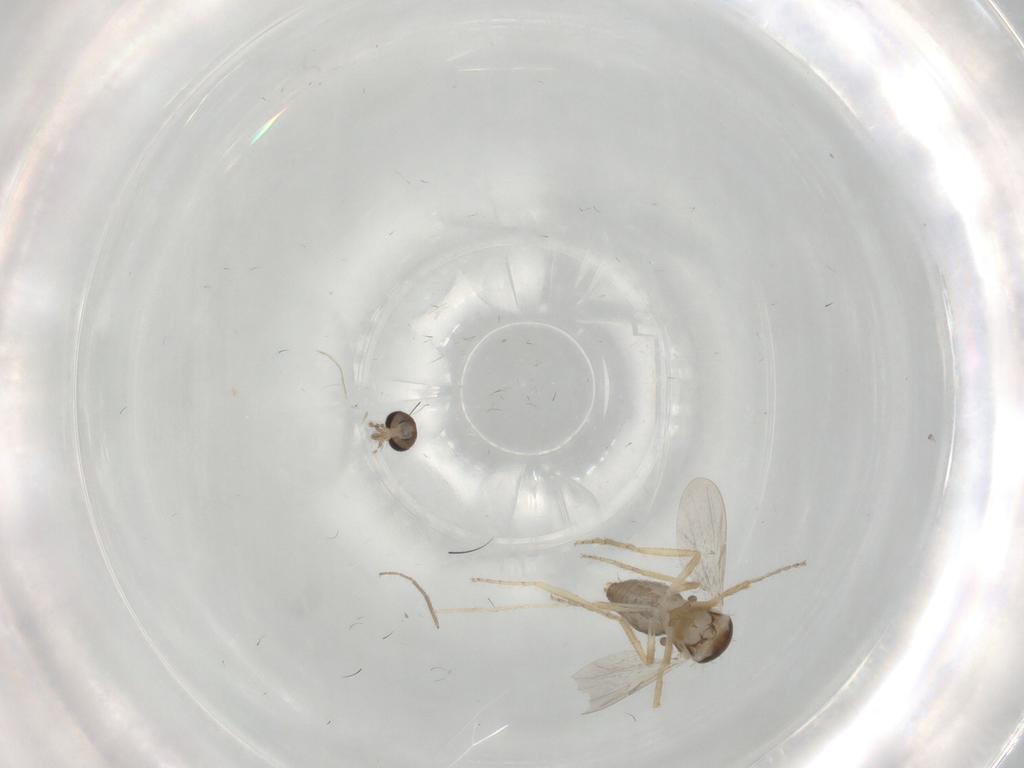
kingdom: Animalia
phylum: Arthropoda
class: Insecta
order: Diptera
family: Ceratopogonidae
